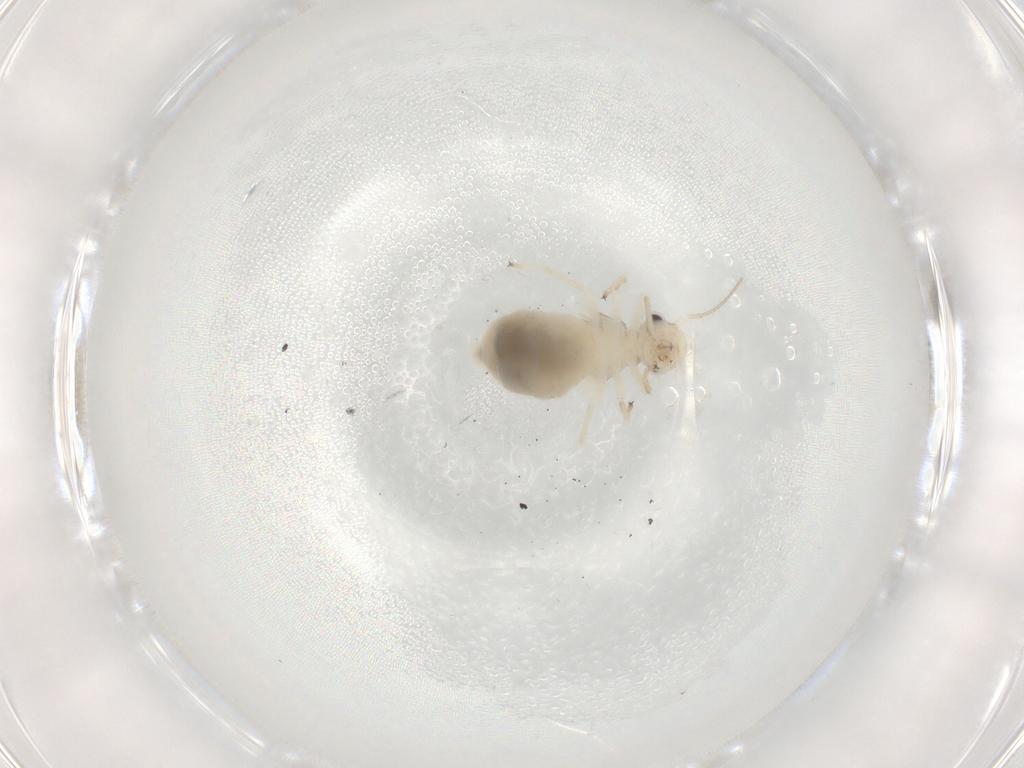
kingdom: Animalia
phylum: Arthropoda
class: Insecta
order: Psocodea
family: Caeciliusidae
